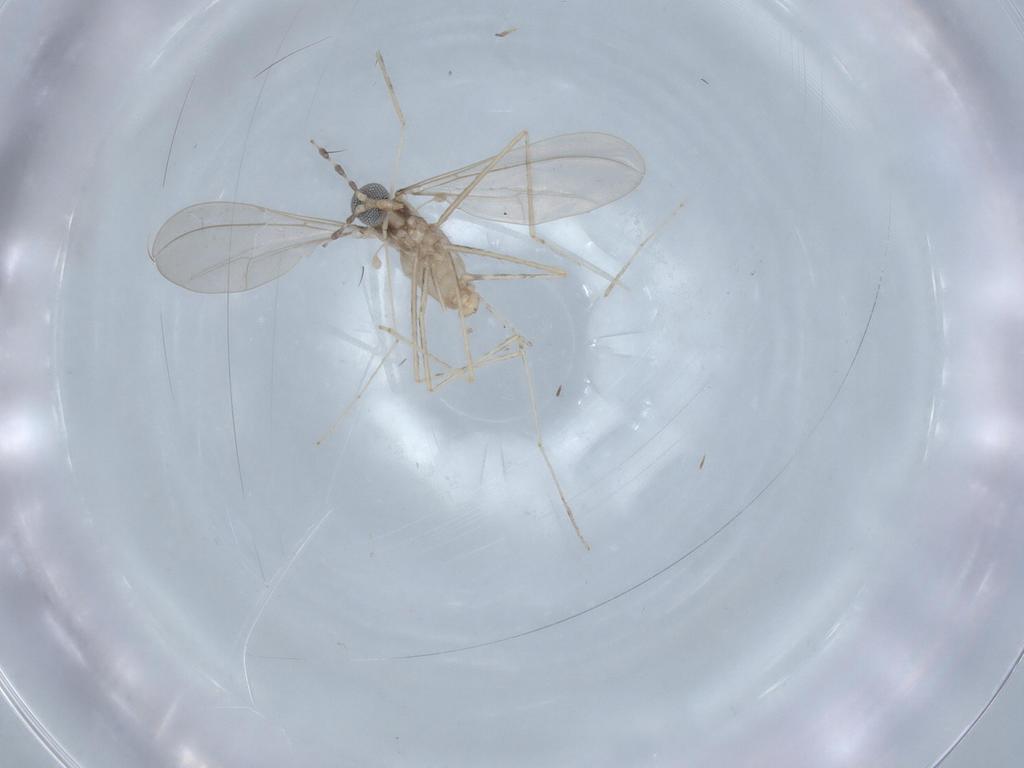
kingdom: Animalia
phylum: Arthropoda
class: Insecta
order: Diptera
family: Cecidomyiidae
